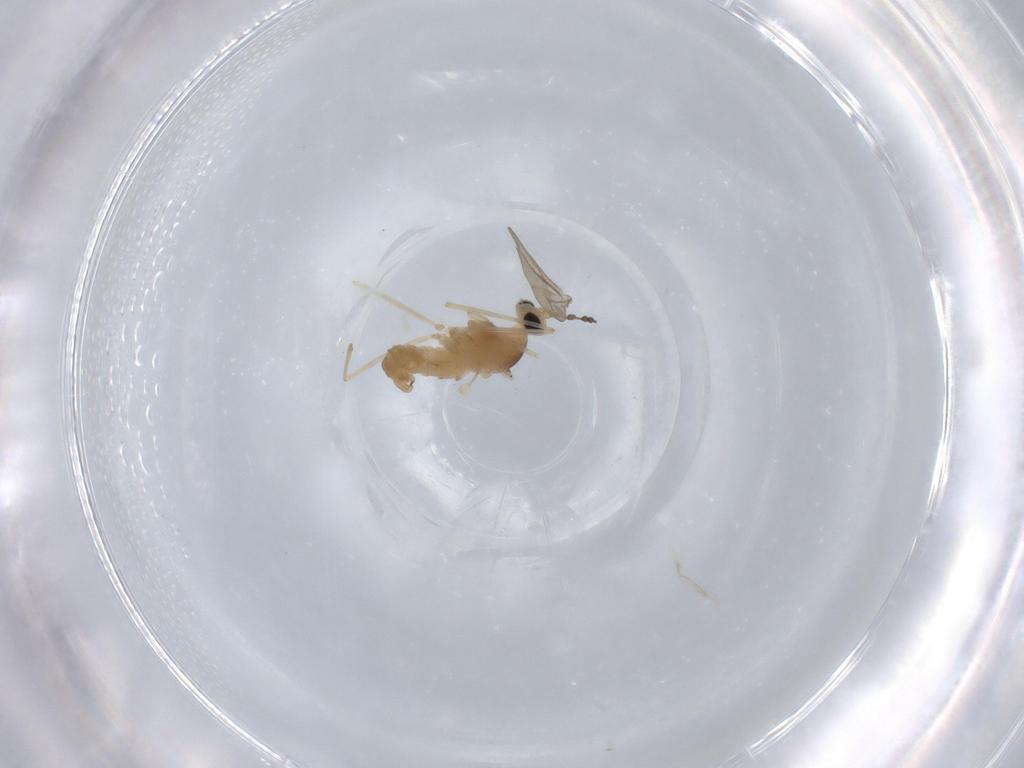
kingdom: Animalia
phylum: Arthropoda
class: Insecta
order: Diptera
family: Cecidomyiidae
